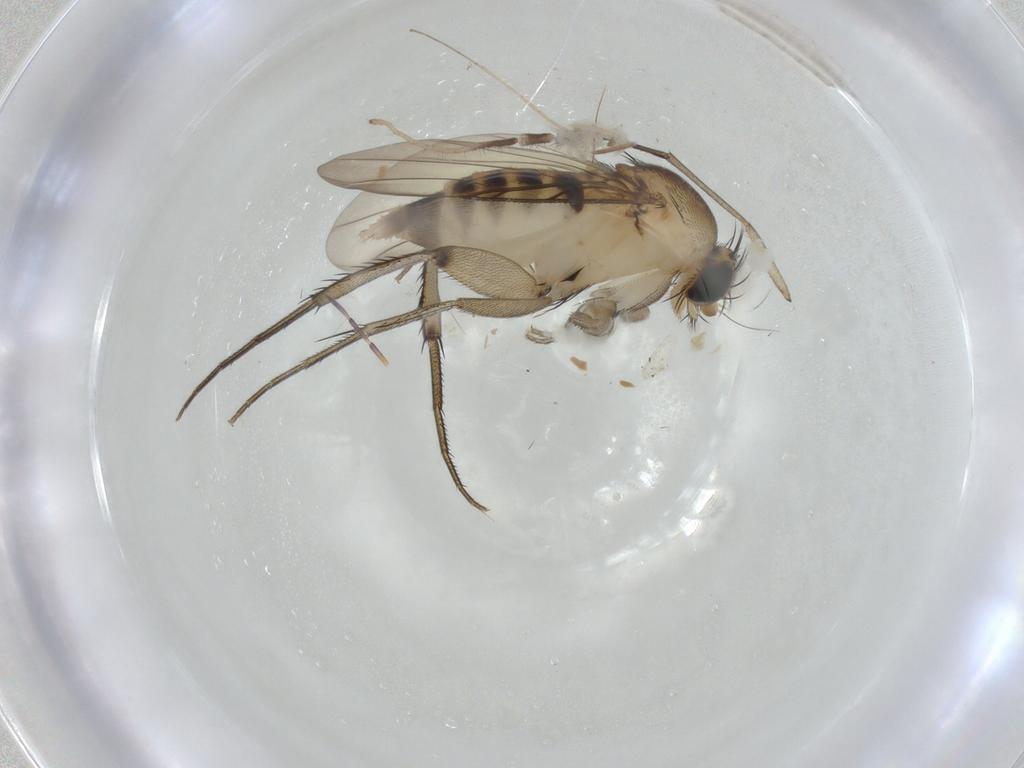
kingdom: Animalia
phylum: Arthropoda
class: Insecta
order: Diptera
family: Phoridae
